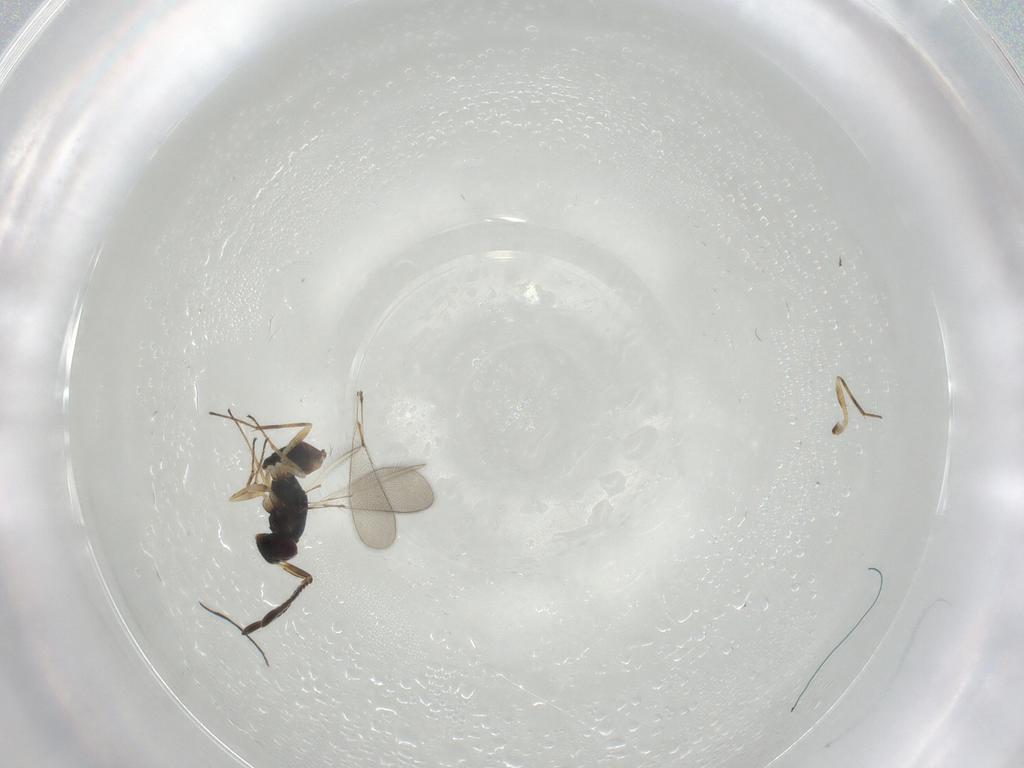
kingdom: Animalia
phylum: Arthropoda
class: Insecta
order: Hymenoptera
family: Mymaridae
